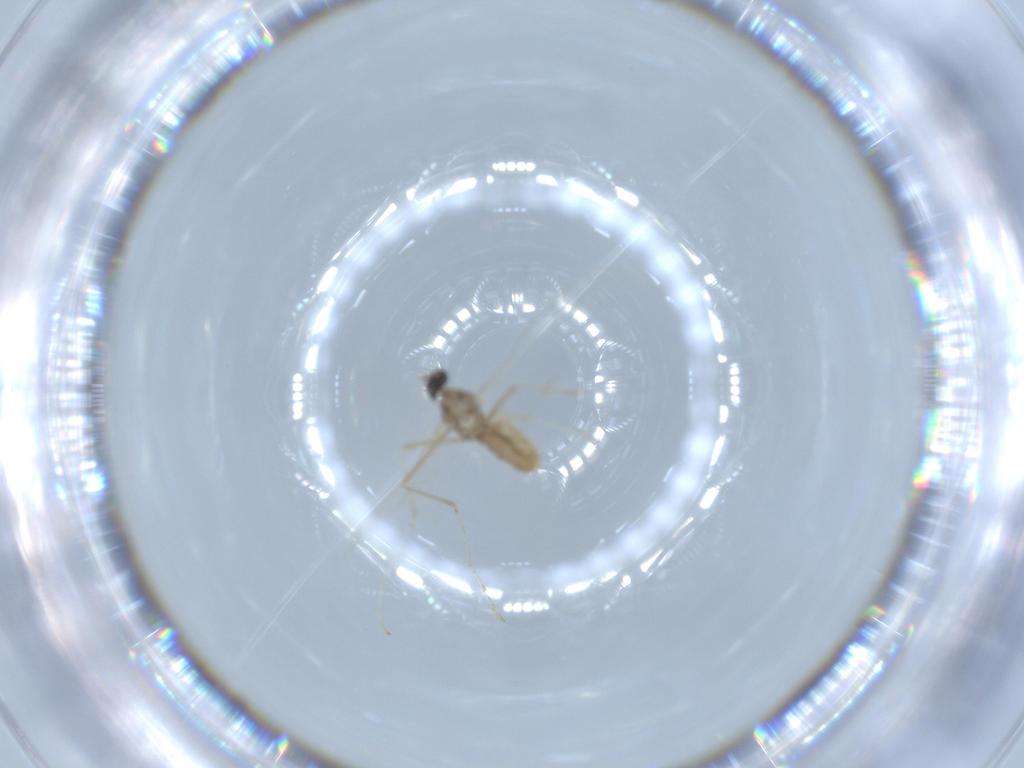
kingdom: Animalia
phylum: Arthropoda
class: Insecta
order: Diptera
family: Cecidomyiidae
